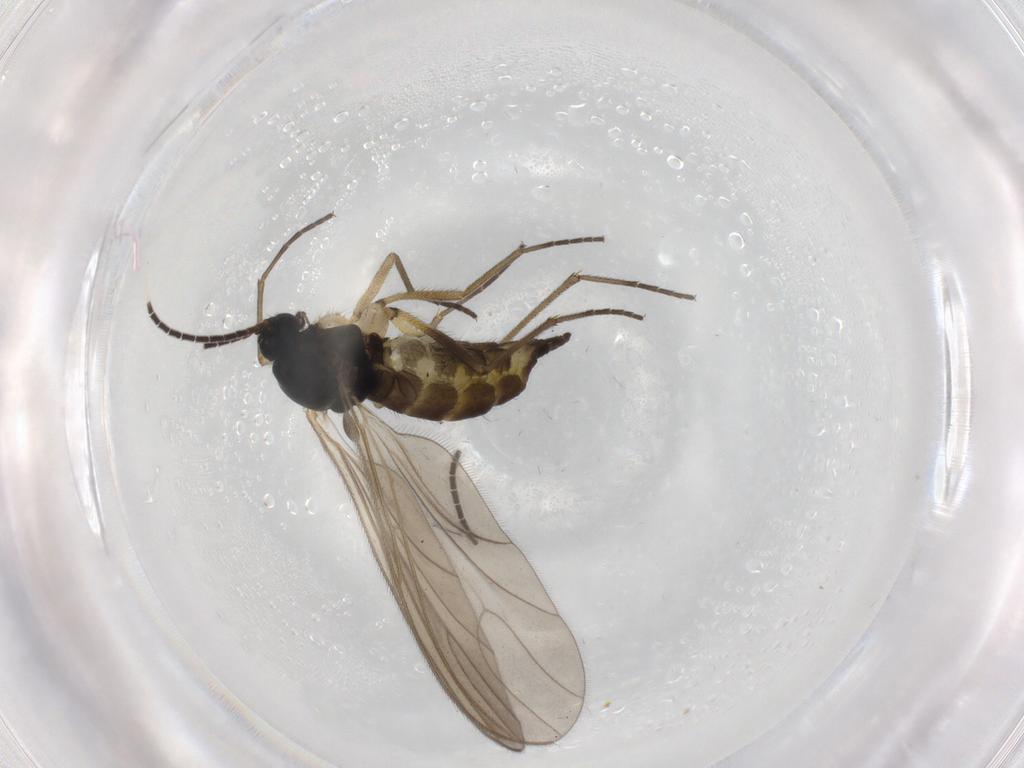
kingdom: Animalia
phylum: Arthropoda
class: Insecta
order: Diptera
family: Sciaridae
